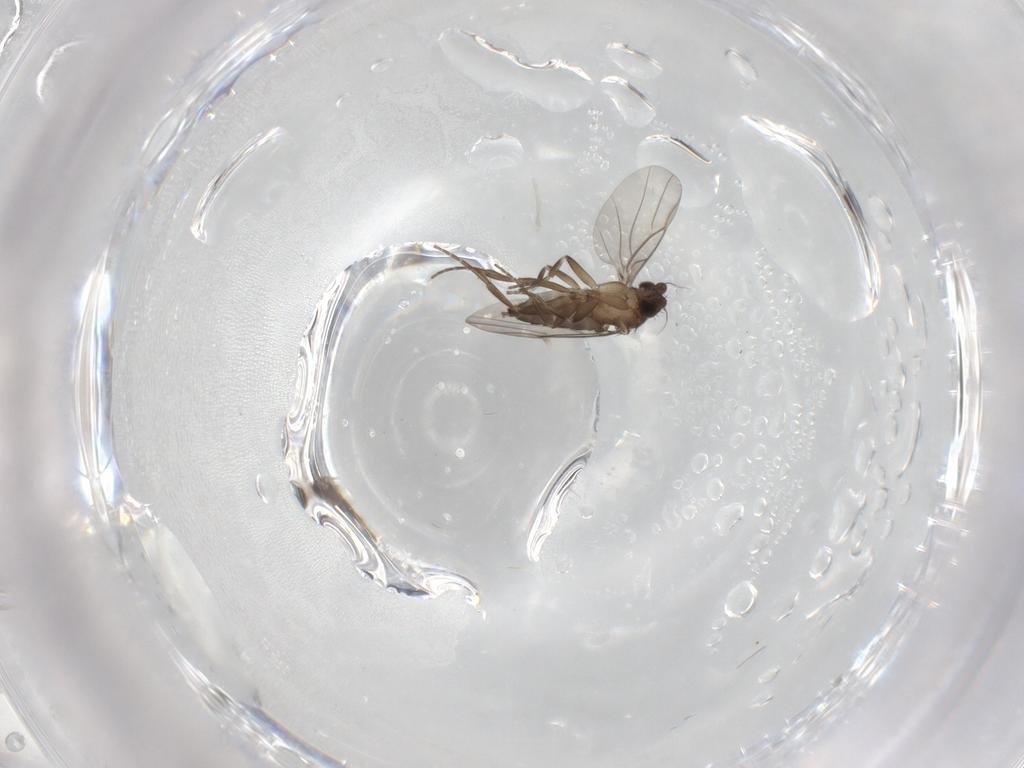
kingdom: Animalia
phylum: Arthropoda
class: Insecta
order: Diptera
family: Phoridae
